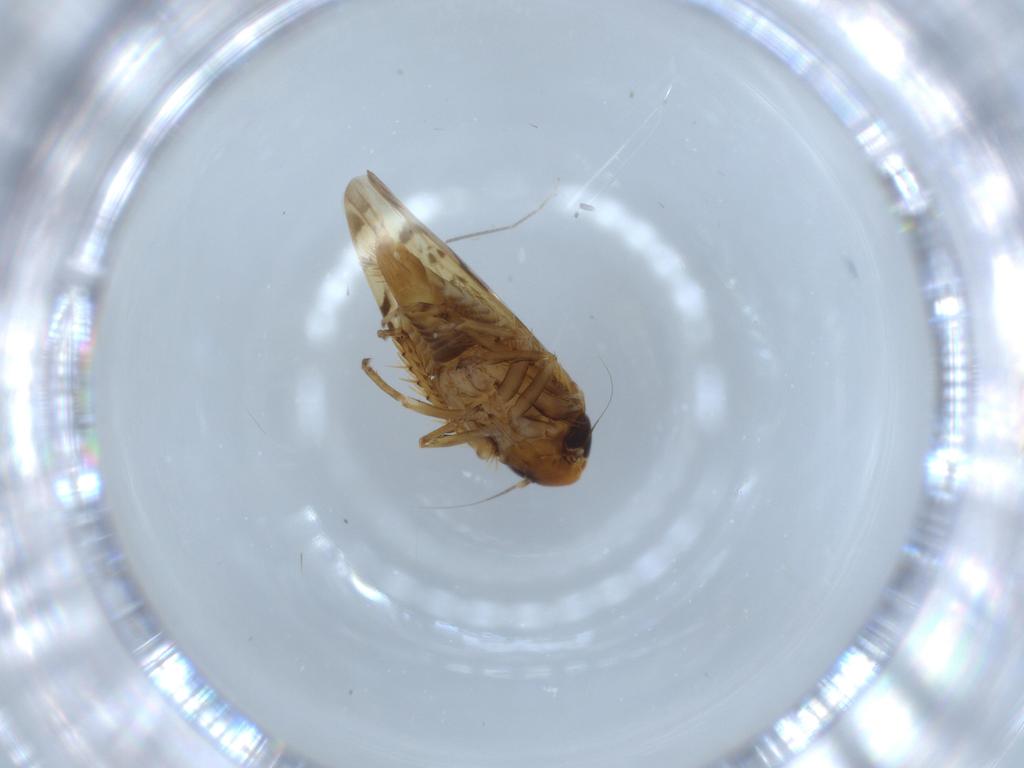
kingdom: Animalia
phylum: Arthropoda
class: Insecta
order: Hemiptera
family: Cicadellidae
